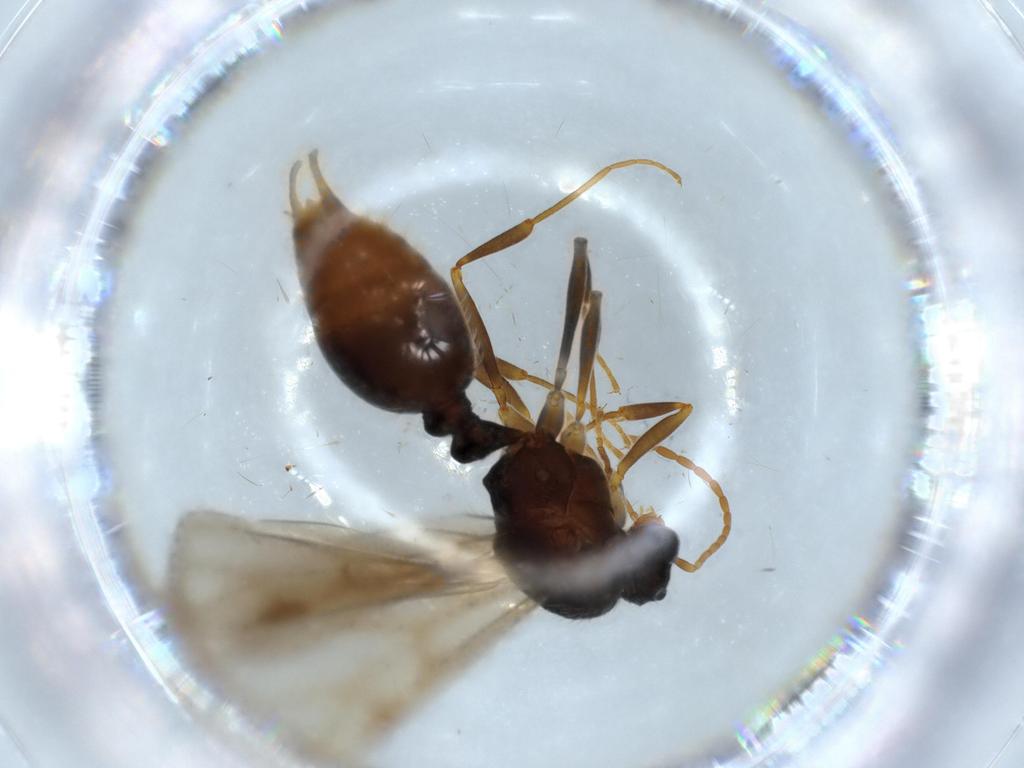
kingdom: Animalia
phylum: Arthropoda
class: Insecta
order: Hymenoptera
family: Formicidae
